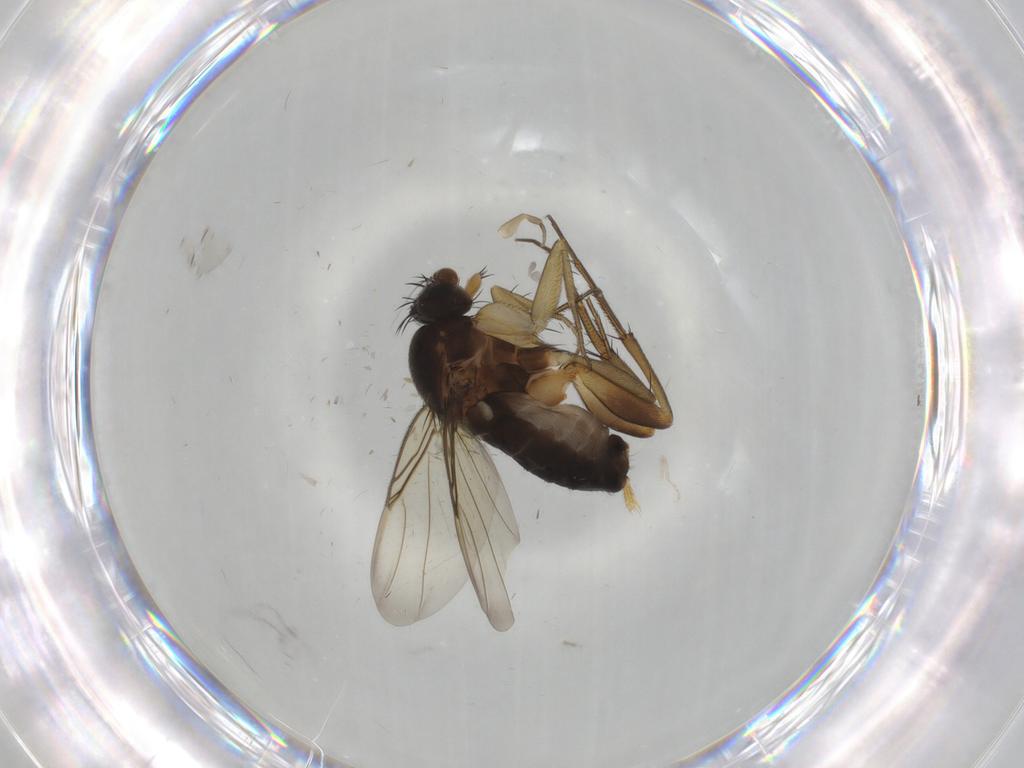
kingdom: Animalia
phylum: Arthropoda
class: Insecta
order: Diptera
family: Phoridae
